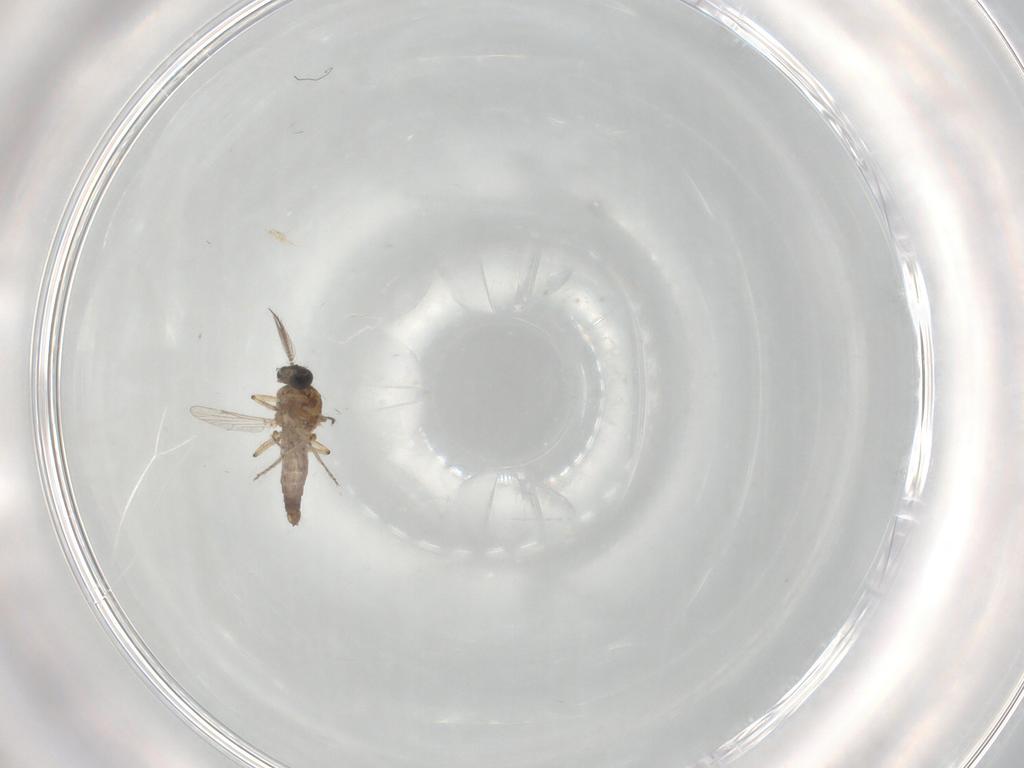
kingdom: Animalia
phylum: Arthropoda
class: Insecta
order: Diptera
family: Ceratopogonidae
